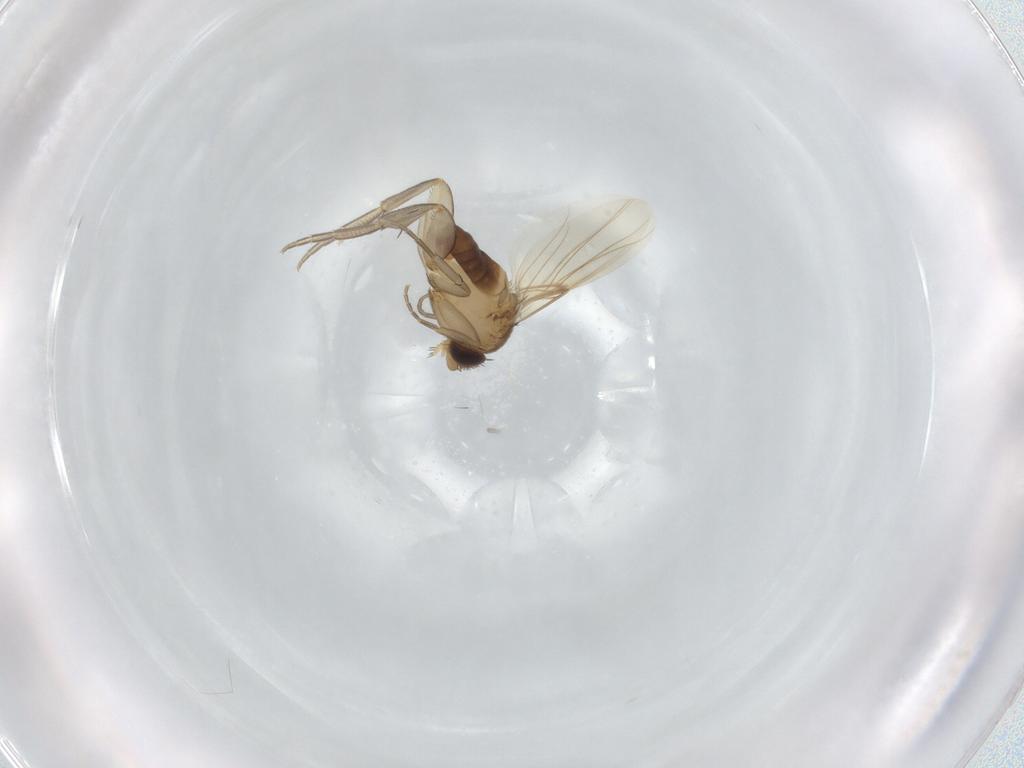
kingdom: Animalia
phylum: Arthropoda
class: Insecta
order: Diptera
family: Phoridae
